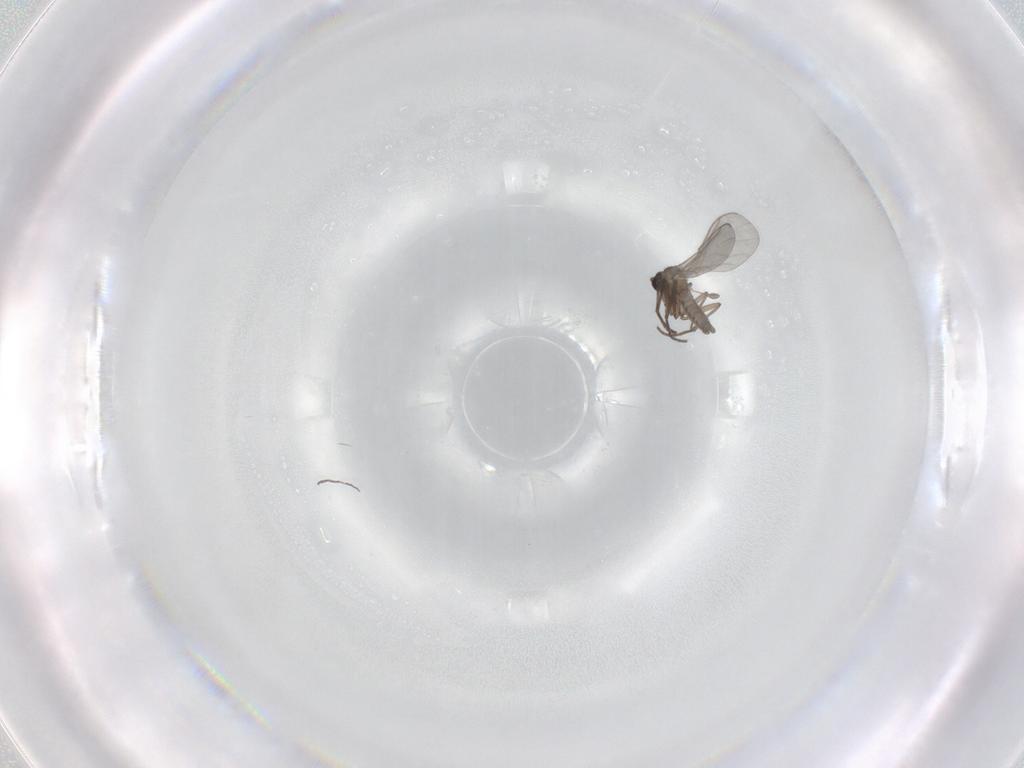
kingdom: Animalia
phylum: Arthropoda
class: Insecta
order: Diptera
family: Sciaridae
